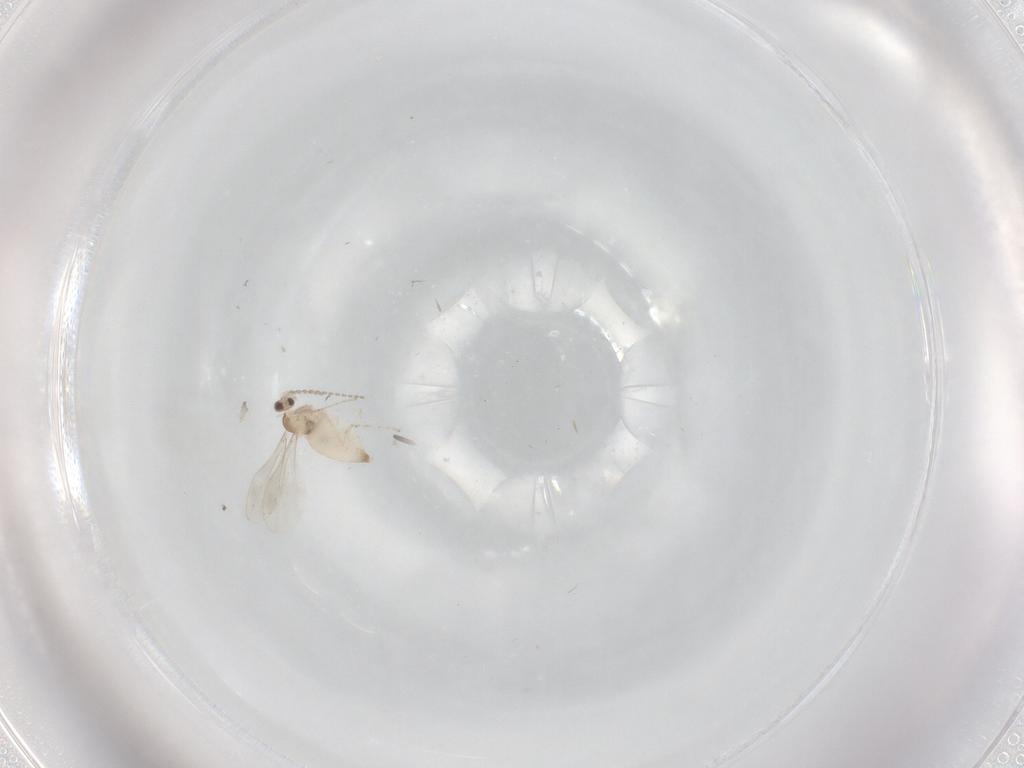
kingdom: Animalia
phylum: Arthropoda
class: Insecta
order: Diptera
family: Cecidomyiidae
